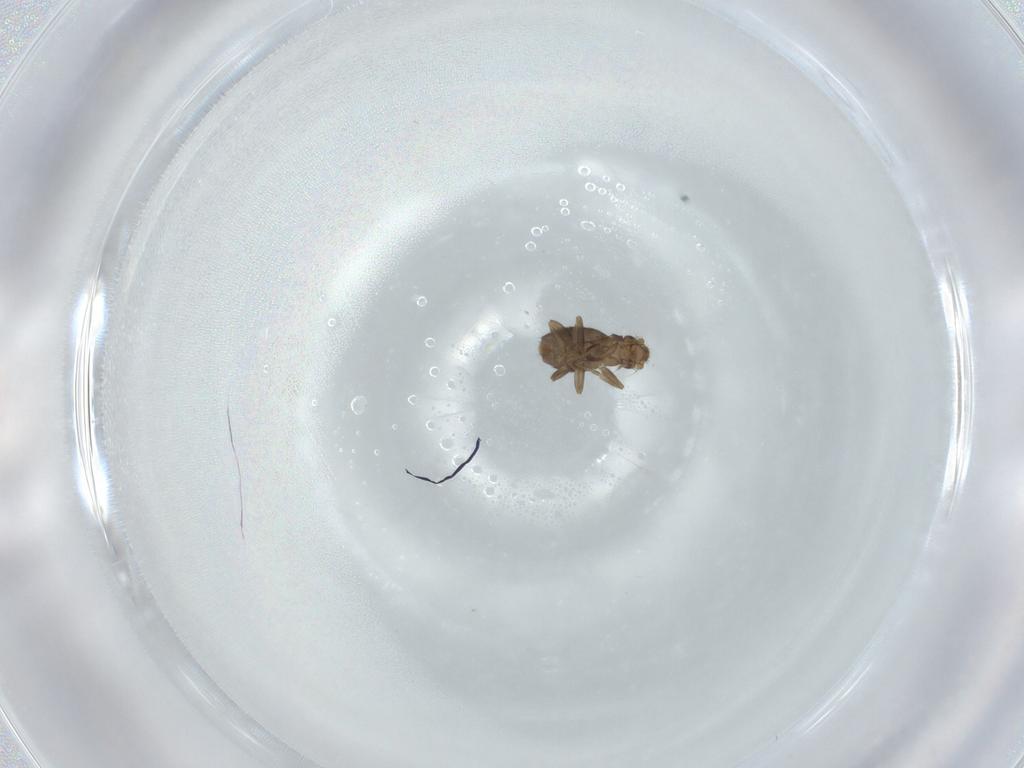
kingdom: Animalia
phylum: Arthropoda
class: Insecta
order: Diptera
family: Phoridae
